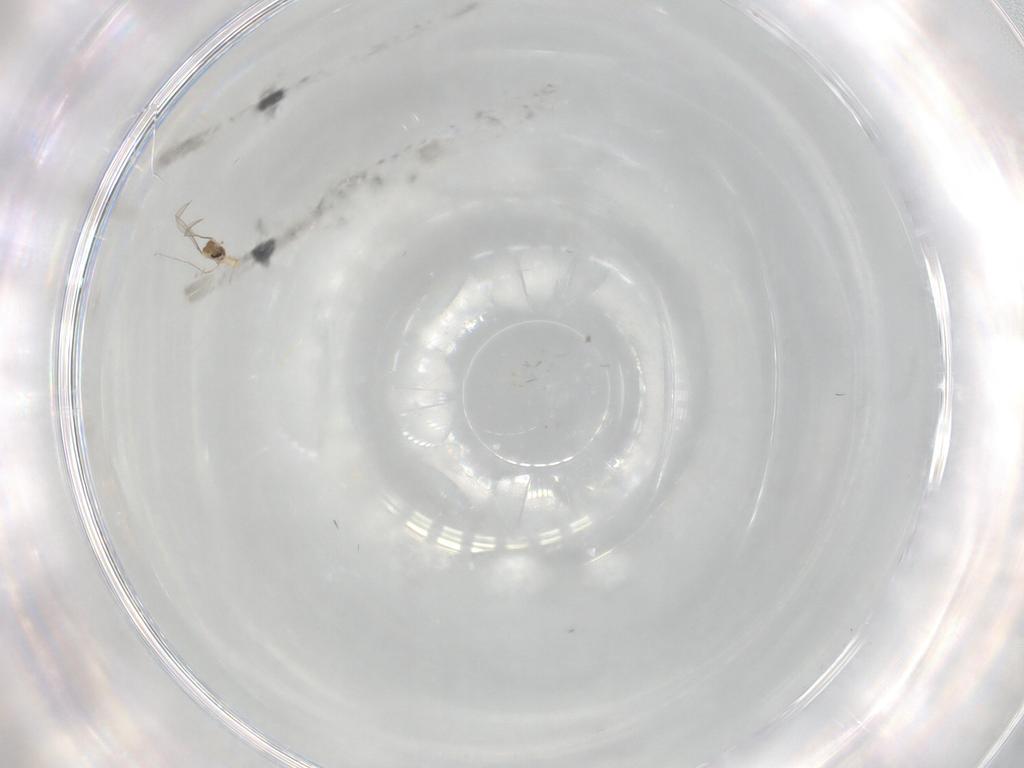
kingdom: Animalia
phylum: Arthropoda
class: Insecta
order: Diptera
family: Cecidomyiidae
